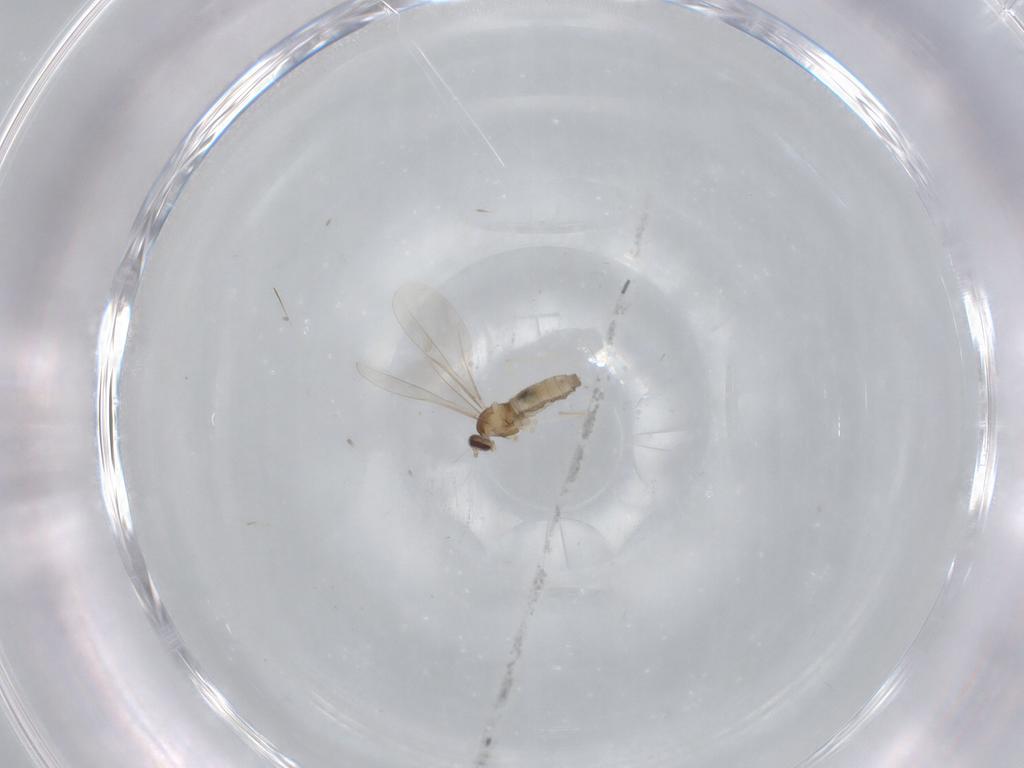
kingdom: Animalia
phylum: Arthropoda
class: Insecta
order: Diptera
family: Cecidomyiidae
